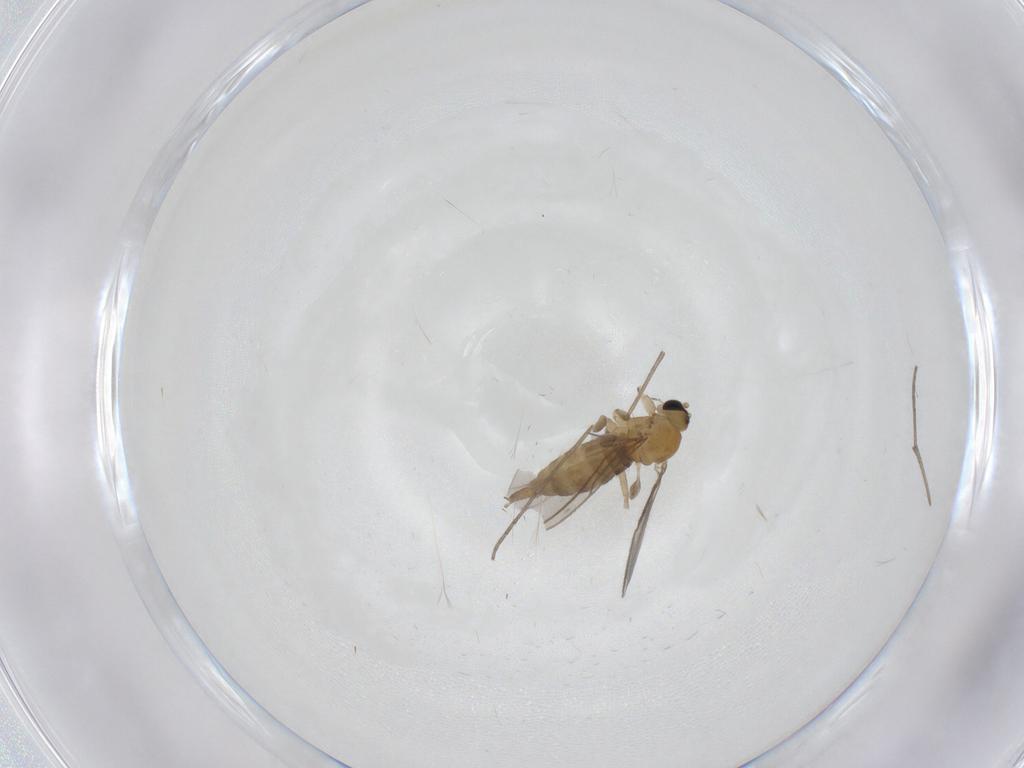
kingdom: Animalia
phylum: Arthropoda
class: Insecta
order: Diptera
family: Sciaridae
